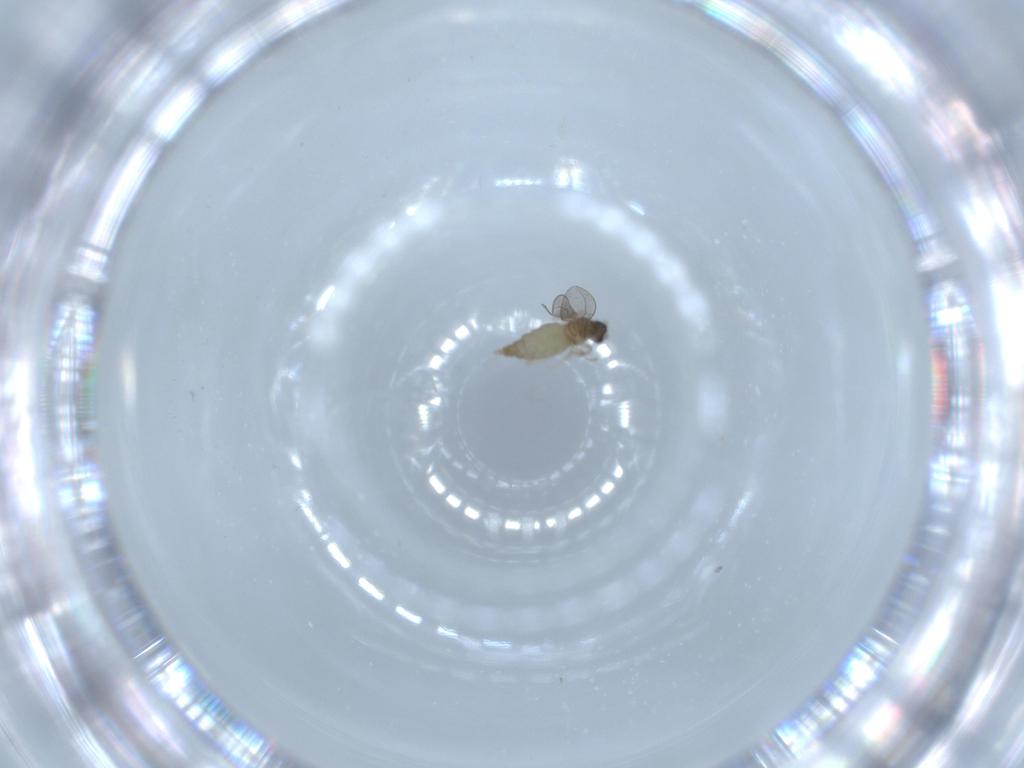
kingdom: Animalia
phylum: Arthropoda
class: Insecta
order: Diptera
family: Cecidomyiidae
